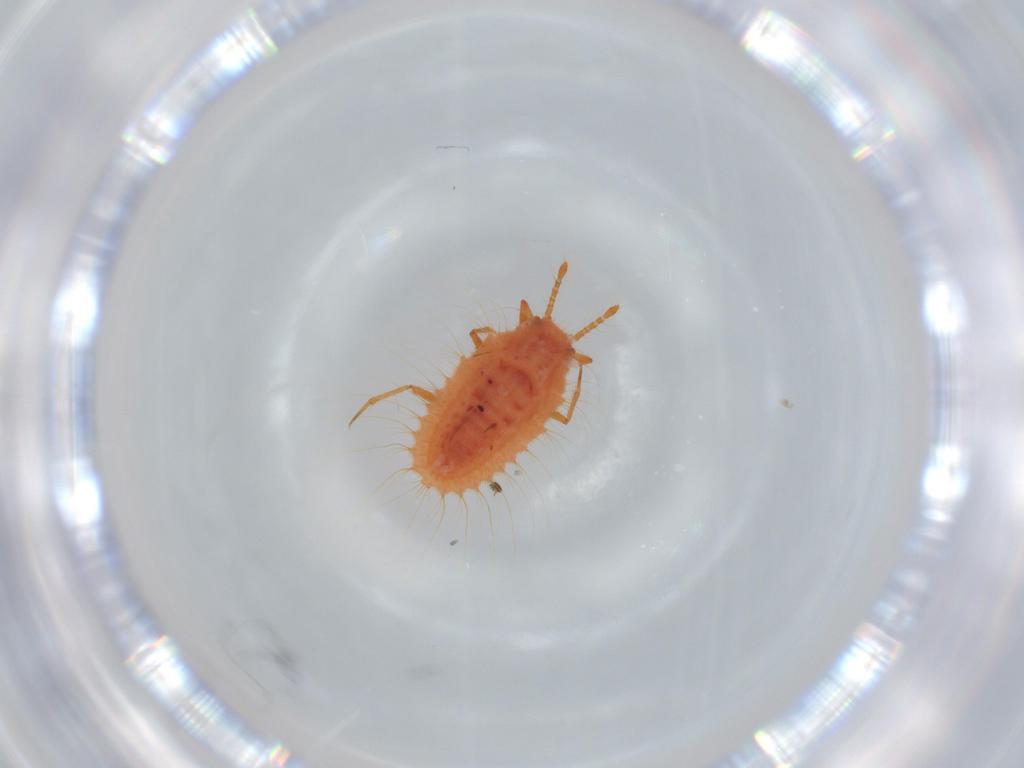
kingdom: Animalia
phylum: Arthropoda
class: Insecta
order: Hemiptera
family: Coccoidea_incertae_sedis
